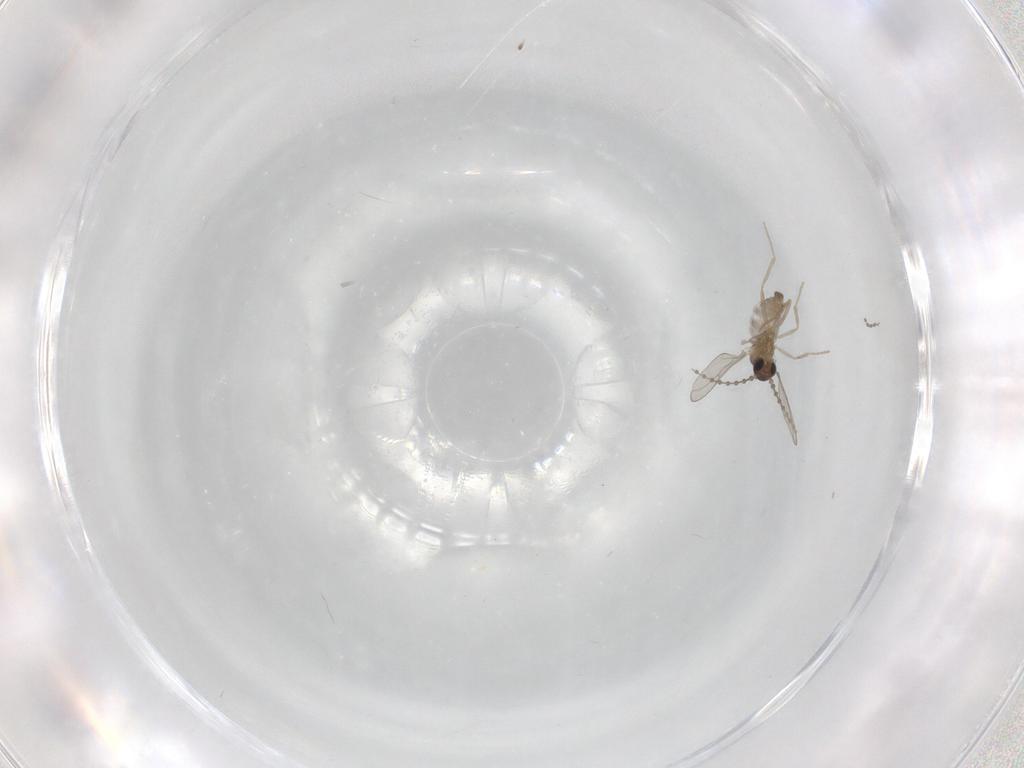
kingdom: Animalia
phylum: Arthropoda
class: Insecta
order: Diptera
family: Cecidomyiidae
